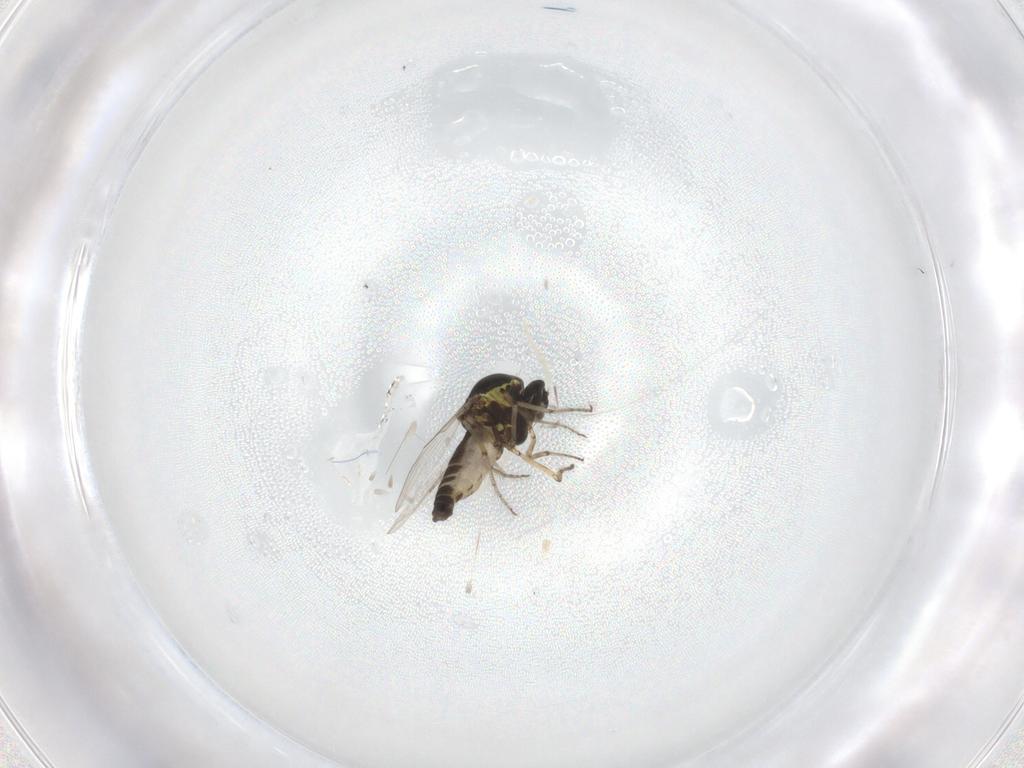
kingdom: Animalia
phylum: Arthropoda
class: Insecta
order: Diptera
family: Cecidomyiidae
